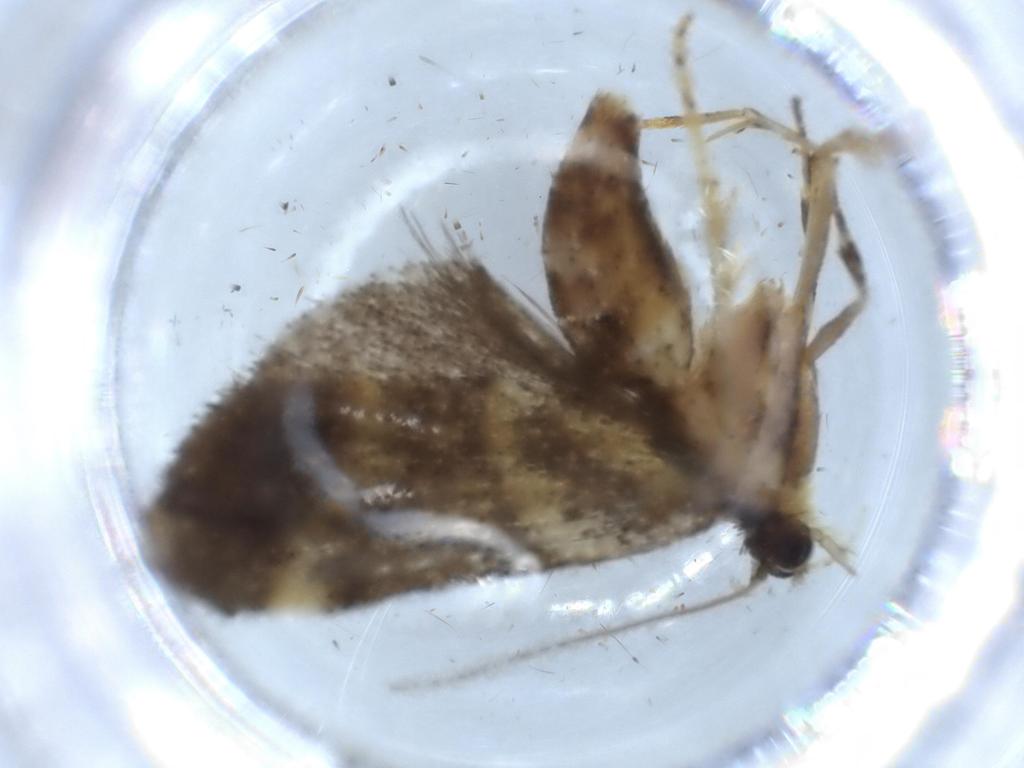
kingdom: Animalia
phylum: Arthropoda
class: Insecta
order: Lepidoptera
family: Crambidae
